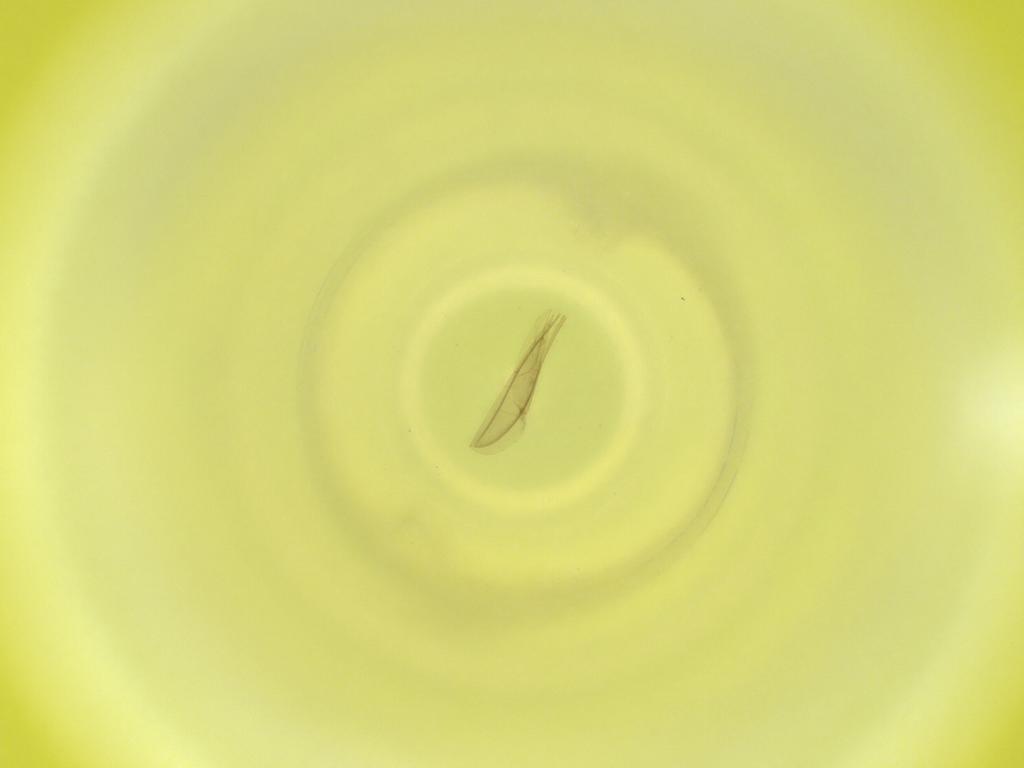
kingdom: Animalia
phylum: Arthropoda
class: Insecta
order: Diptera
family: Cecidomyiidae
